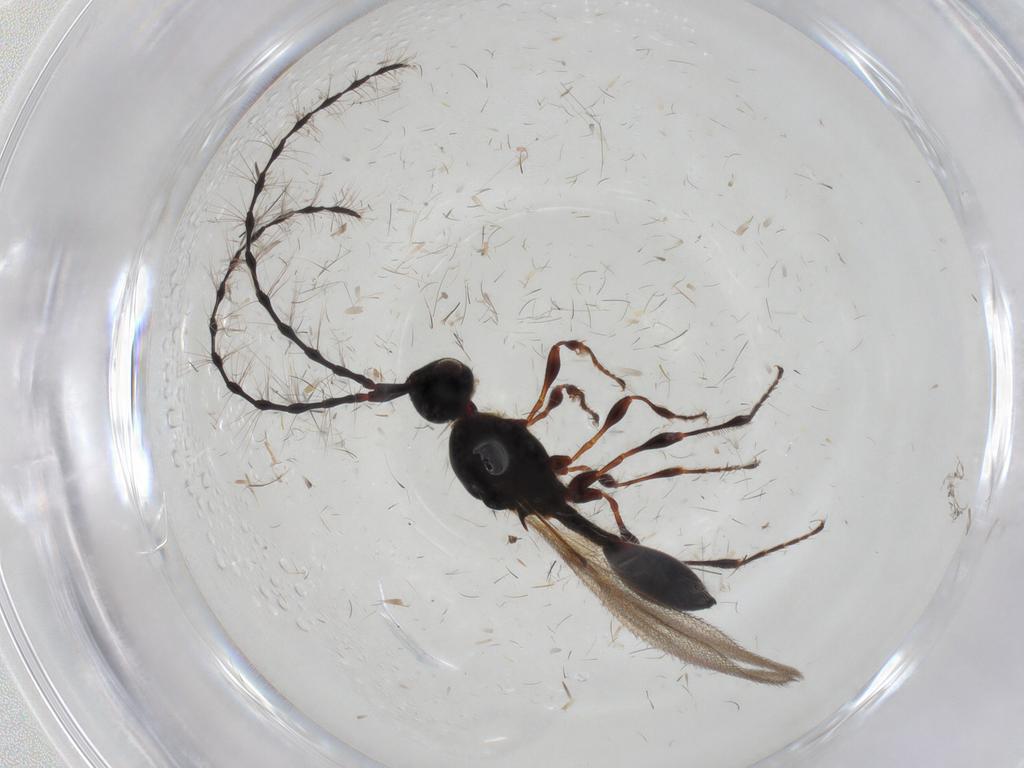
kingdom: Animalia
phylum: Arthropoda
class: Insecta
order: Hymenoptera
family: Diapriidae
